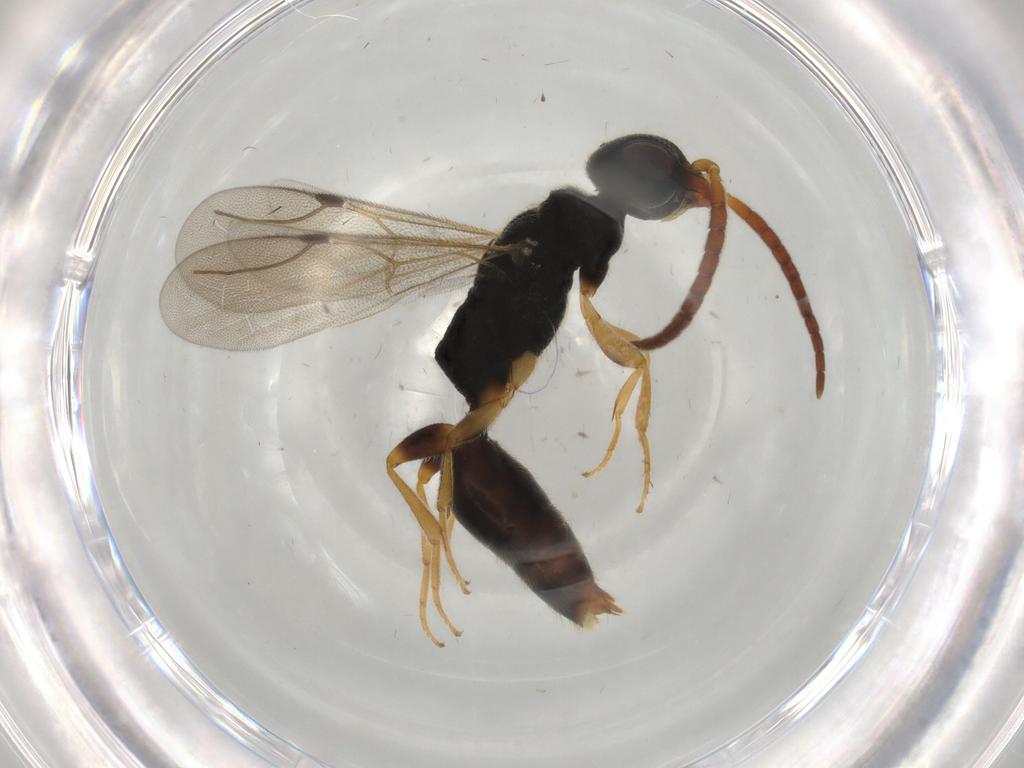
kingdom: Animalia
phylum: Arthropoda
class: Insecta
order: Hymenoptera
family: Bethylidae
